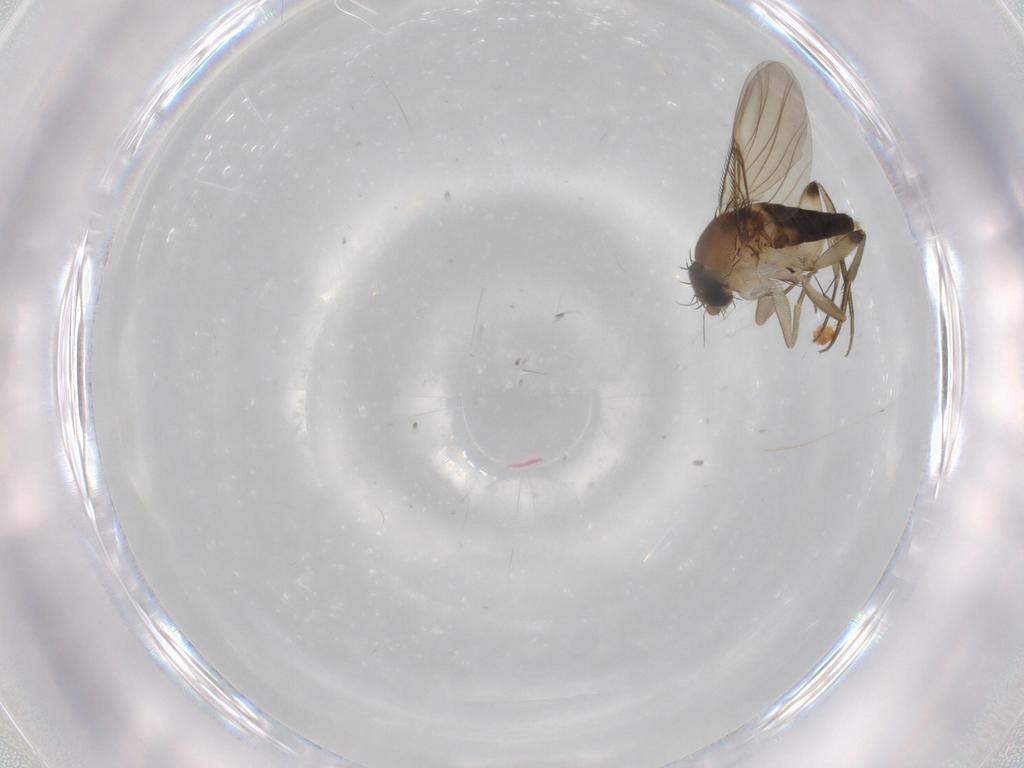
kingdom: Animalia
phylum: Arthropoda
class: Insecta
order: Diptera
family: Phoridae
